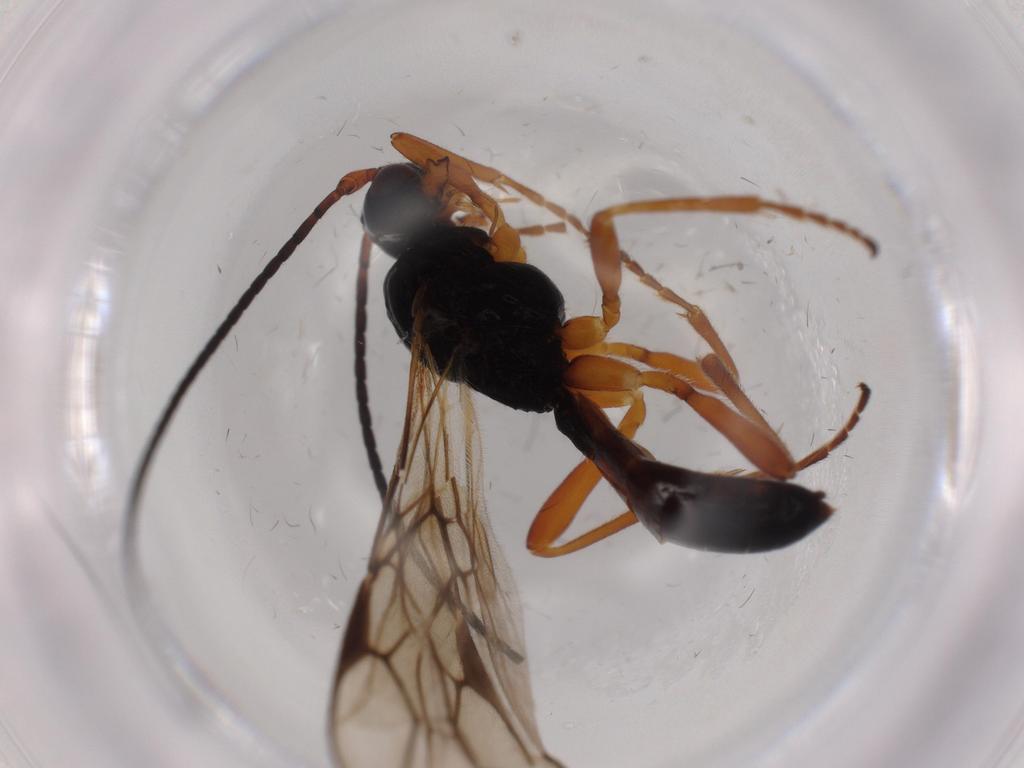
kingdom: Animalia
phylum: Arthropoda
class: Insecta
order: Hymenoptera
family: Braconidae
